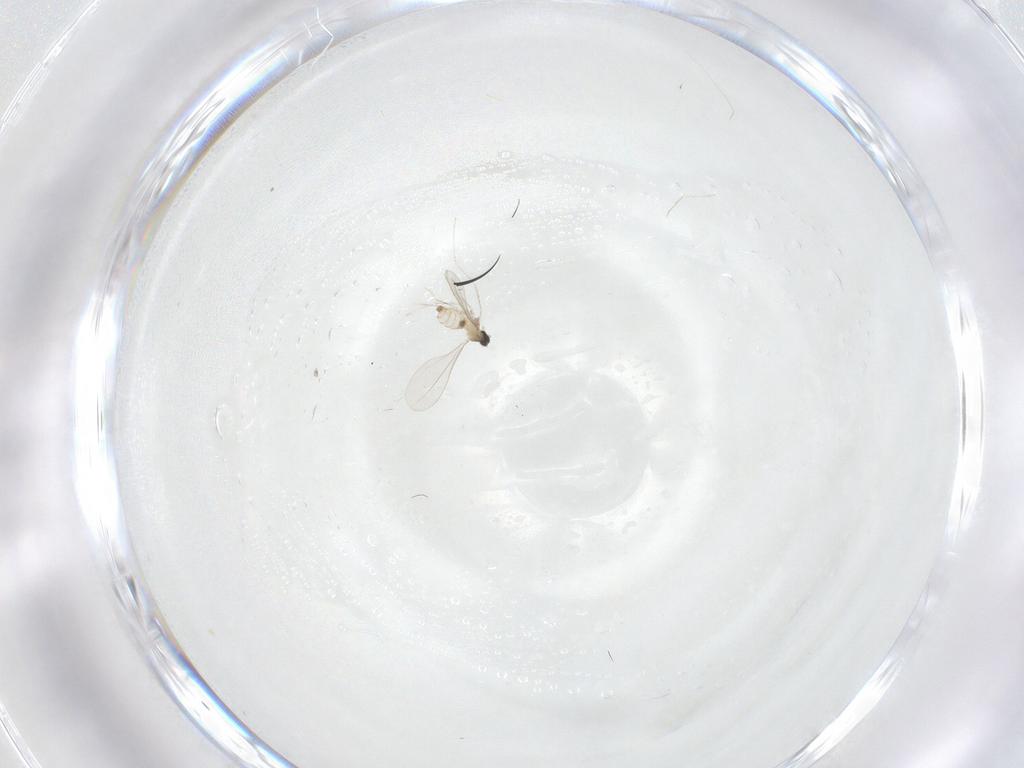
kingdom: Animalia
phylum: Arthropoda
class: Insecta
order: Diptera
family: Cecidomyiidae
